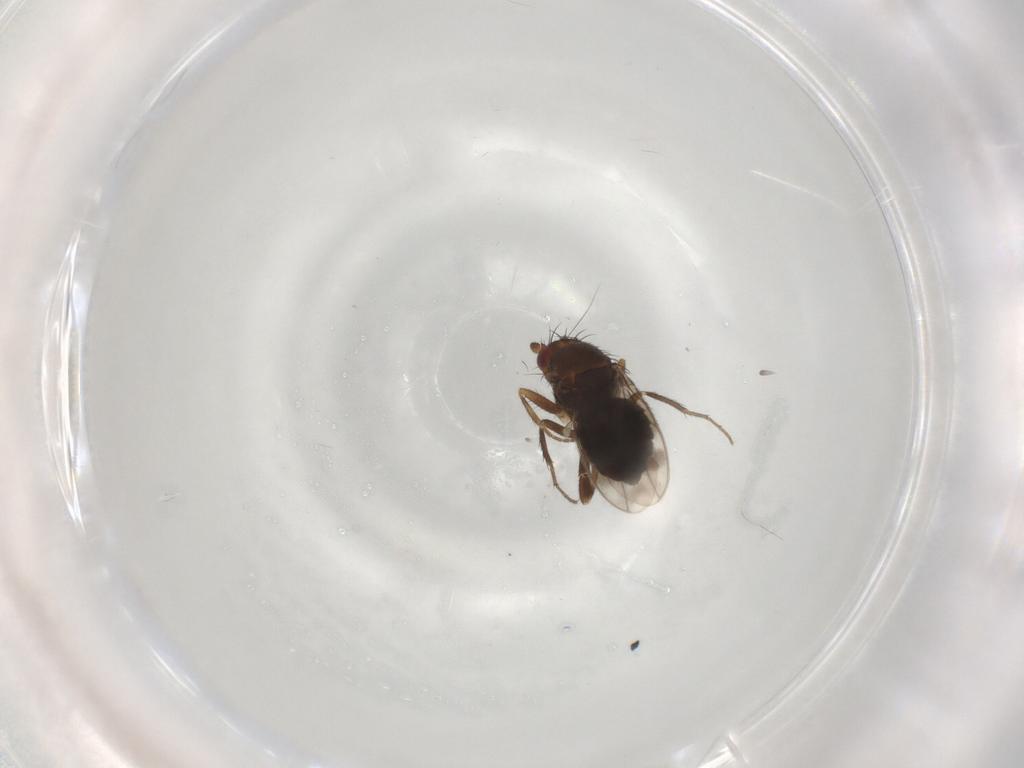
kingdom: Animalia
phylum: Arthropoda
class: Insecta
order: Diptera
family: Sphaeroceridae
